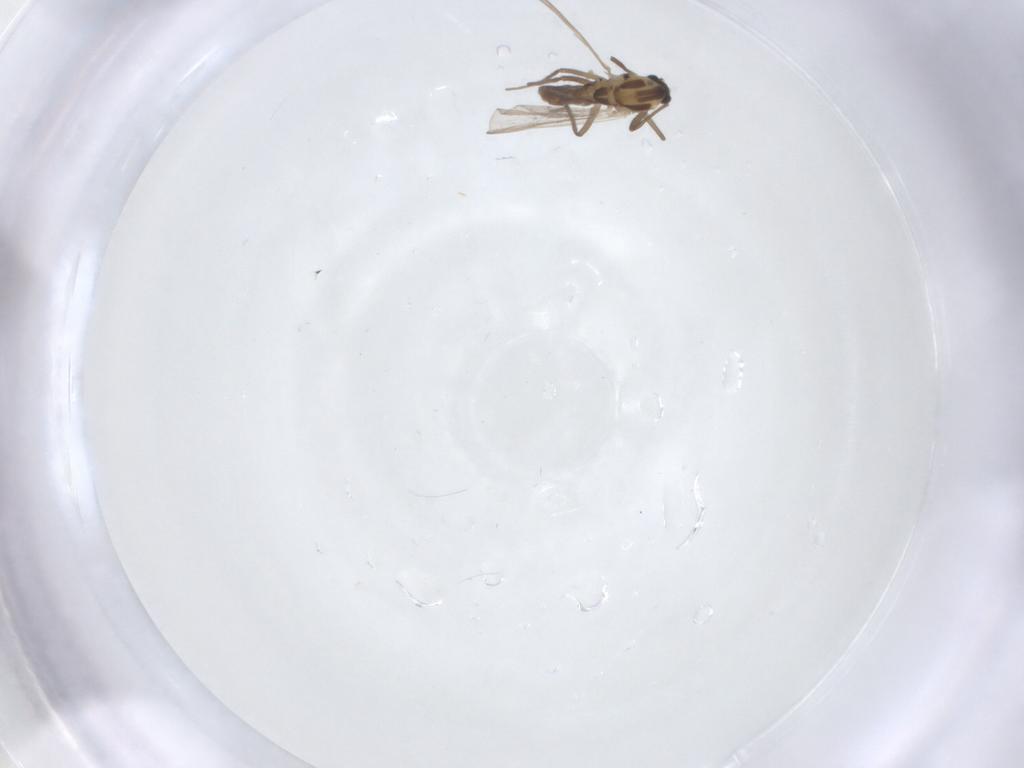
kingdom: Animalia
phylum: Arthropoda
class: Insecta
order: Diptera
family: Chironomidae
